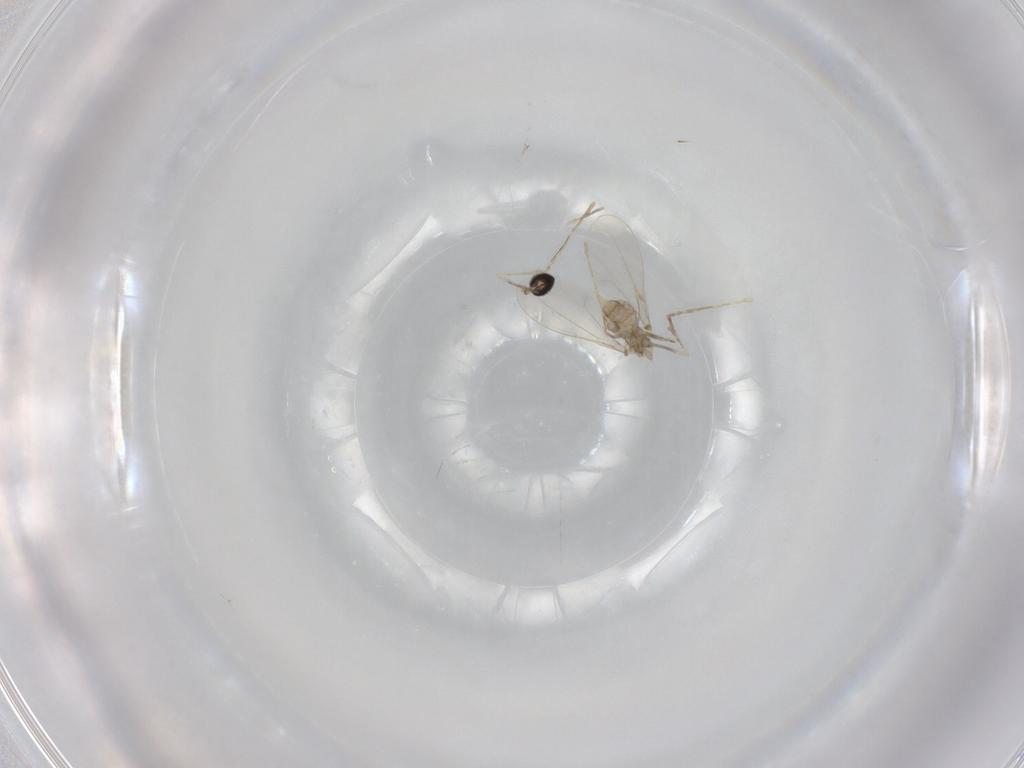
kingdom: Animalia
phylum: Arthropoda
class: Insecta
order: Diptera
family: Cecidomyiidae
